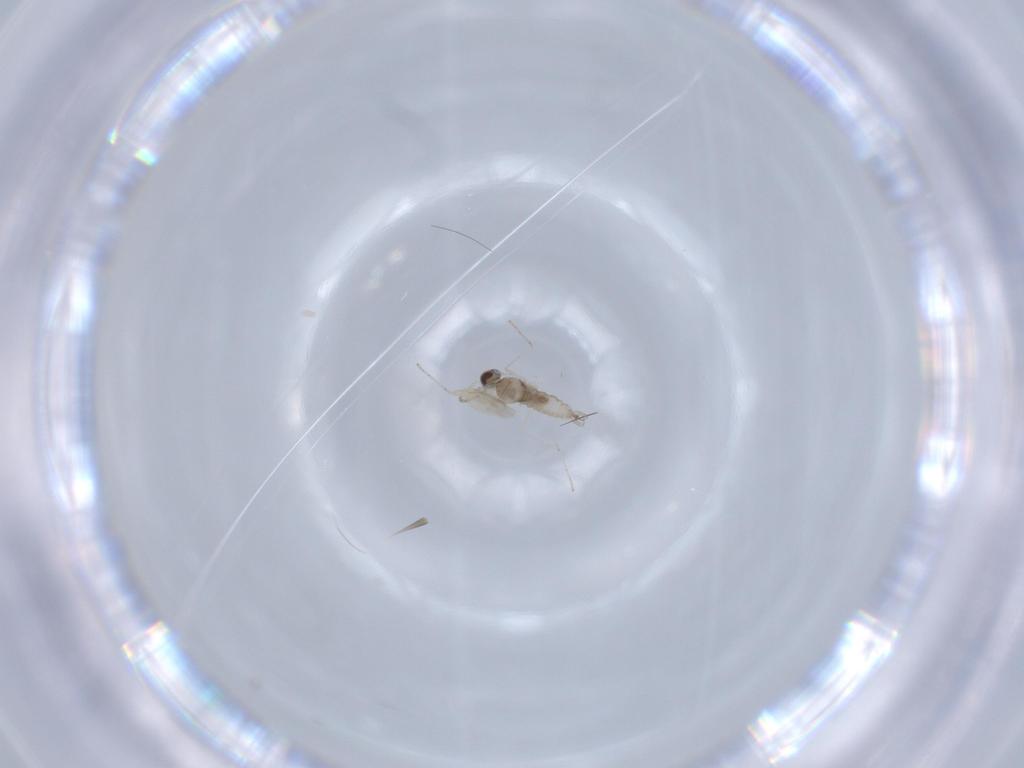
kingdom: Animalia
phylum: Arthropoda
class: Insecta
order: Diptera
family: Cecidomyiidae
